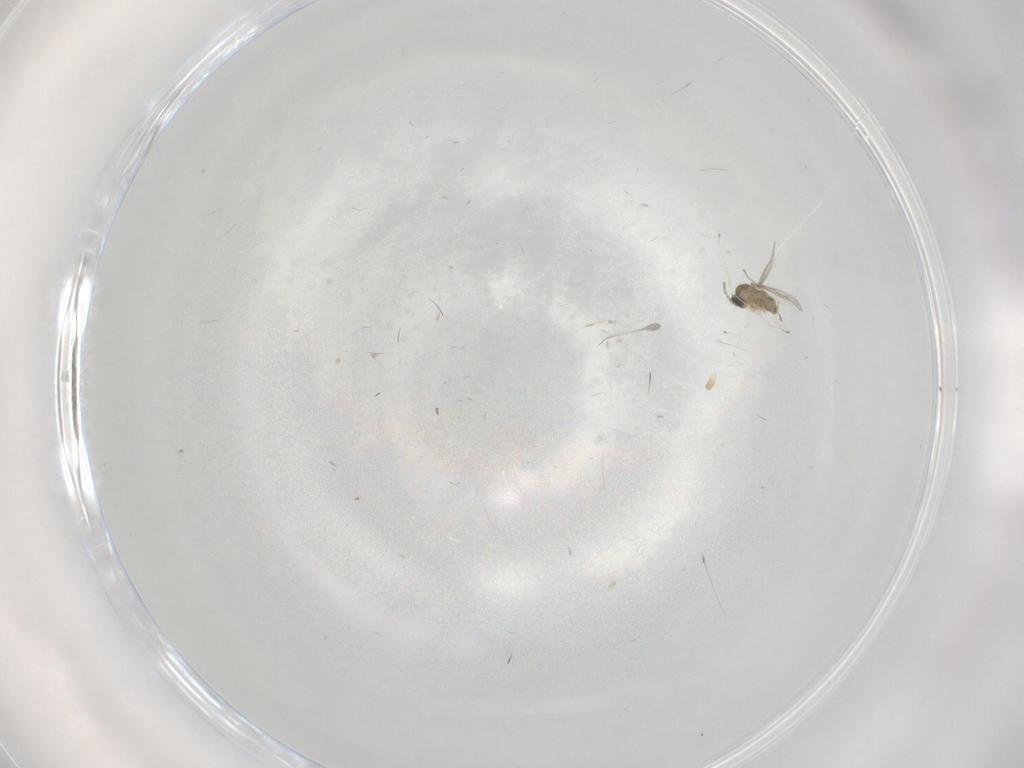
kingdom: Animalia
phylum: Arthropoda
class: Insecta
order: Diptera
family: Cecidomyiidae
